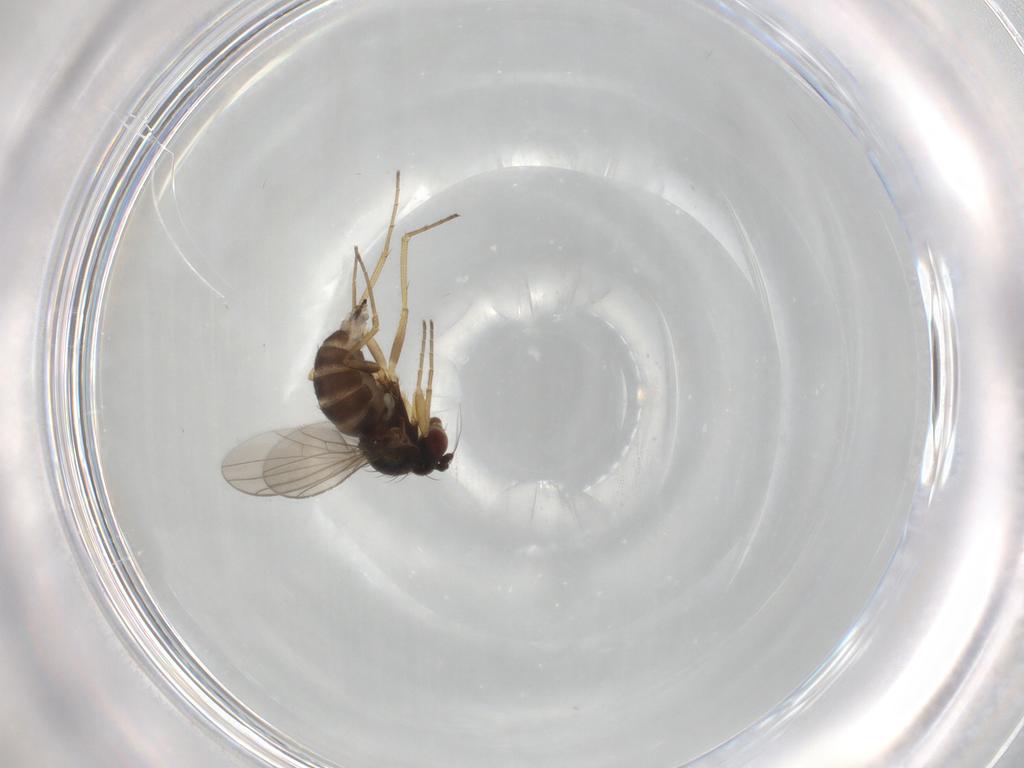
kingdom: Animalia
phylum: Arthropoda
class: Insecta
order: Diptera
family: Dolichopodidae
